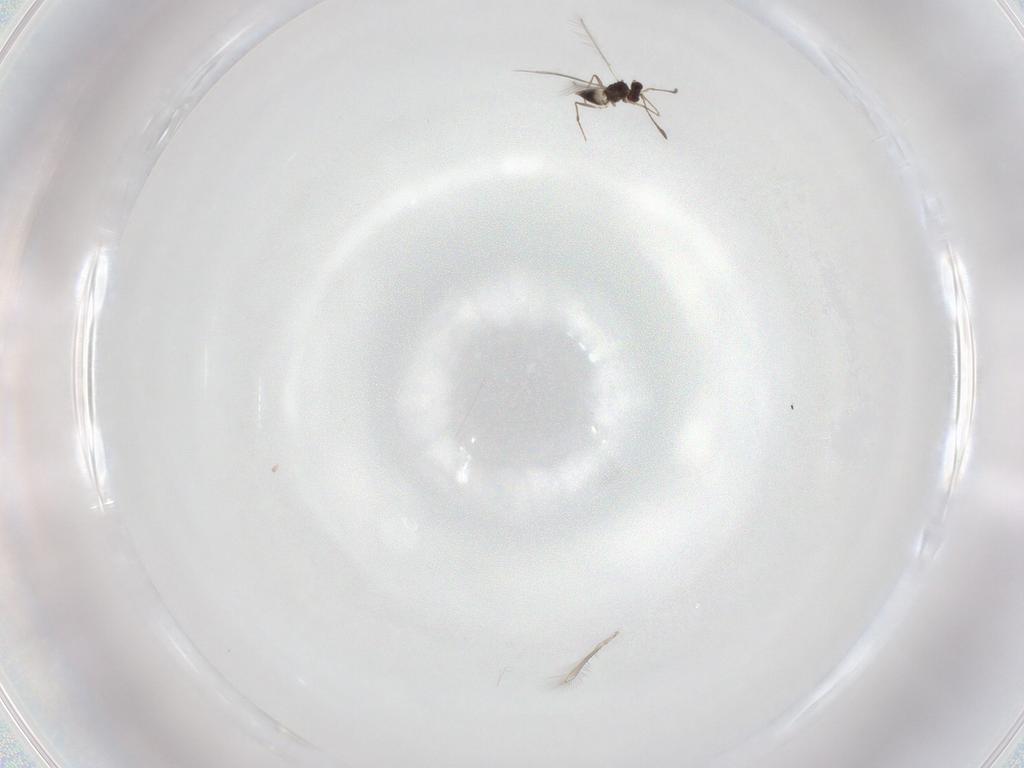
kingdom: Animalia
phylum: Arthropoda
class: Insecta
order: Hymenoptera
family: Mymaridae
